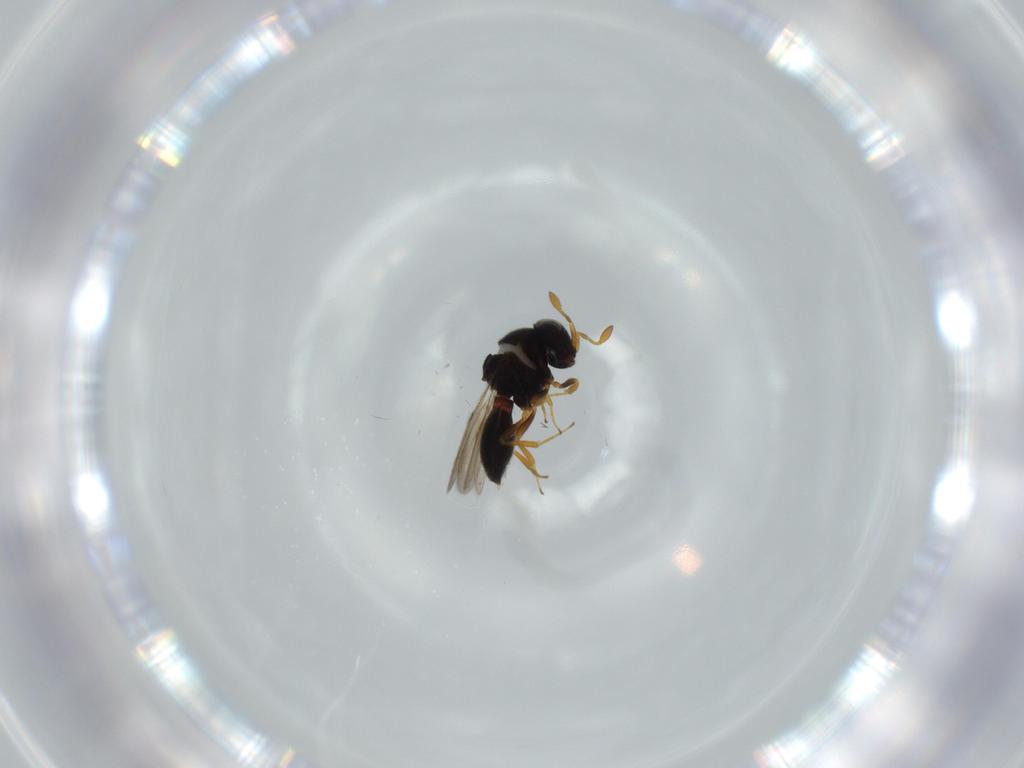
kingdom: Animalia
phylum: Arthropoda
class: Insecta
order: Hymenoptera
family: Scelionidae
